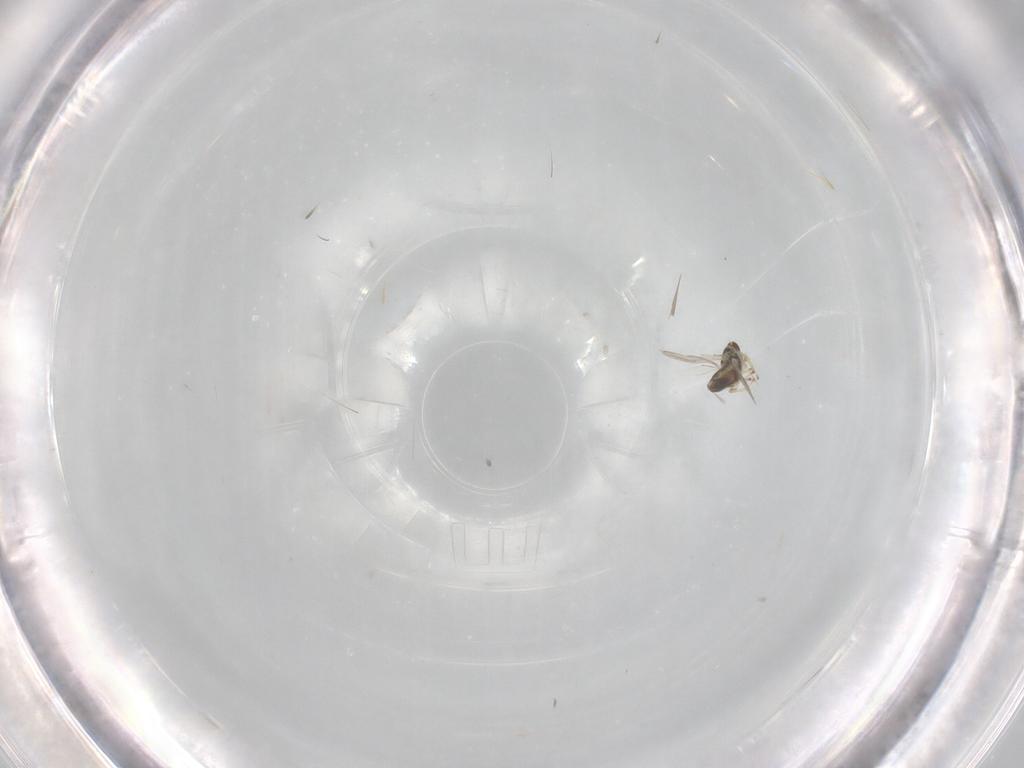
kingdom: Animalia
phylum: Arthropoda
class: Insecta
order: Hymenoptera
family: Eulophidae
